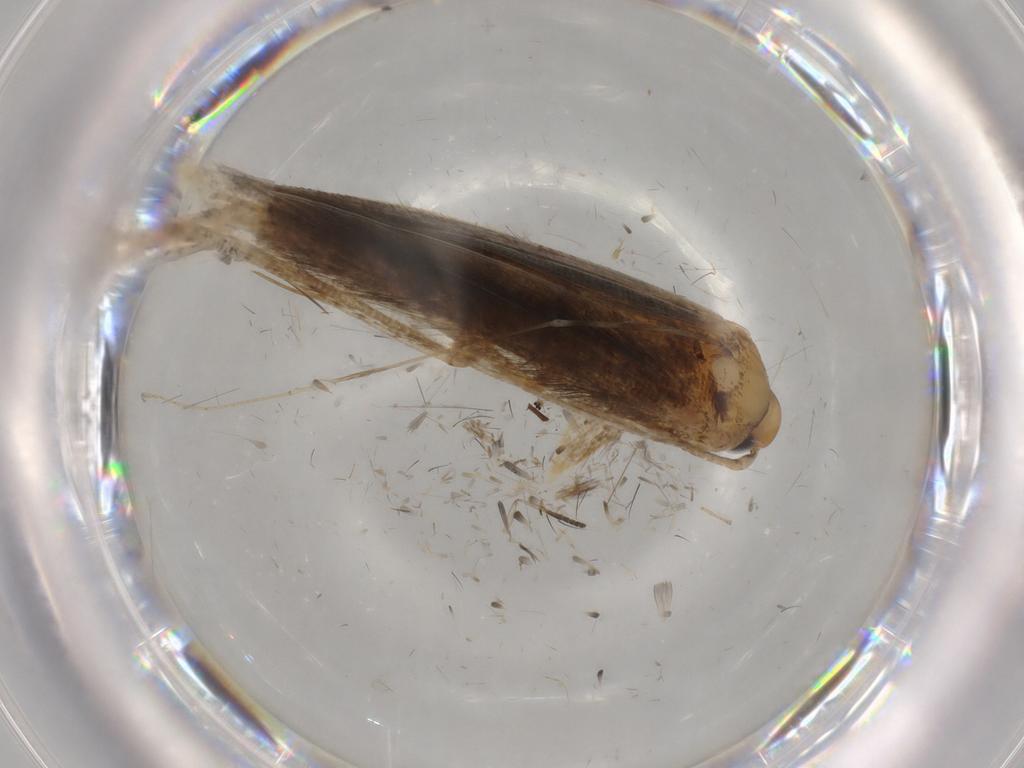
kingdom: Animalia
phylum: Arthropoda
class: Insecta
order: Lepidoptera
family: Pterolonchidae
